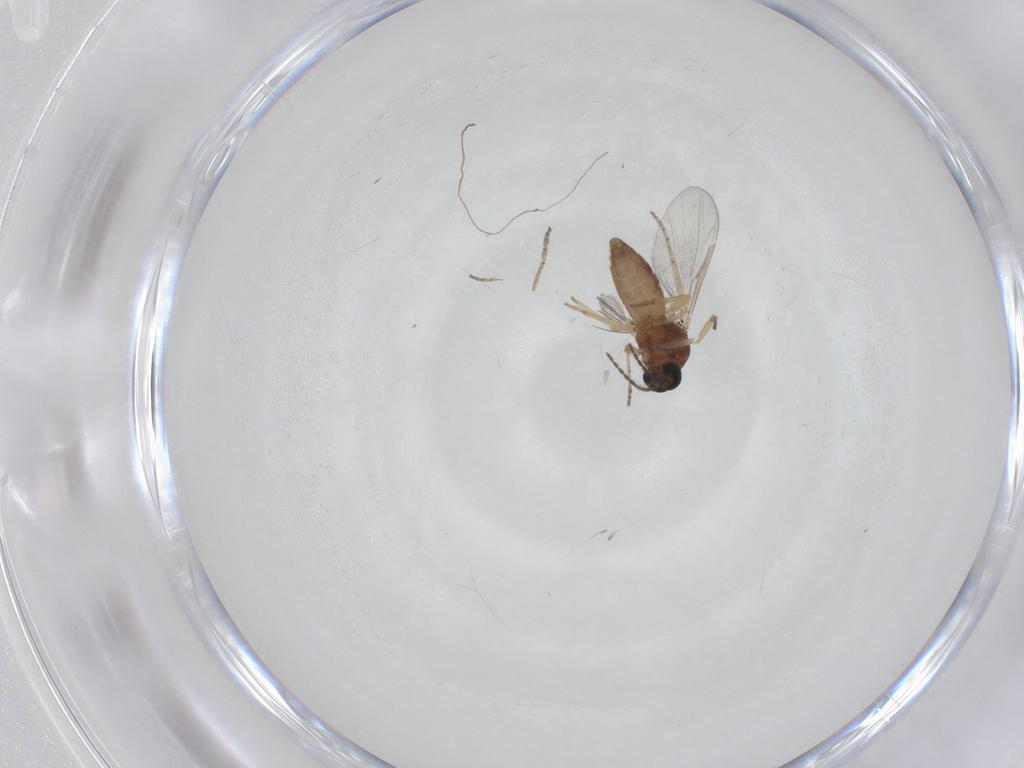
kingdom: Animalia
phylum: Arthropoda
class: Insecta
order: Diptera
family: Ceratopogonidae
